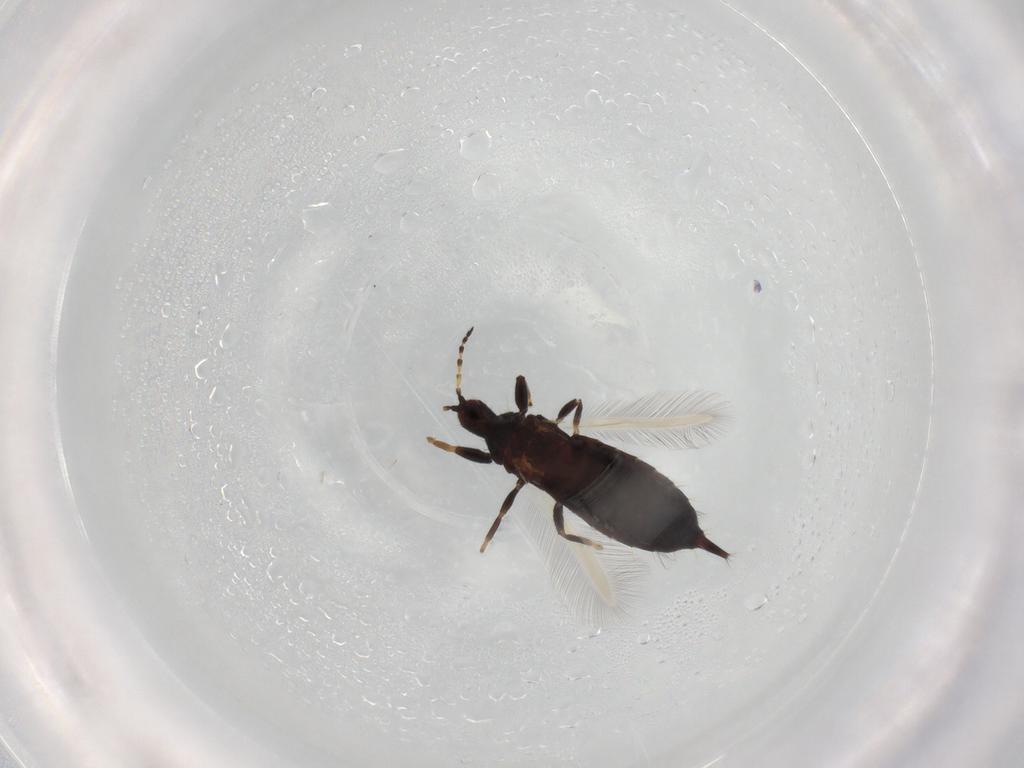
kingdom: Animalia
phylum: Arthropoda
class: Insecta
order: Thysanoptera
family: Phlaeothripidae
